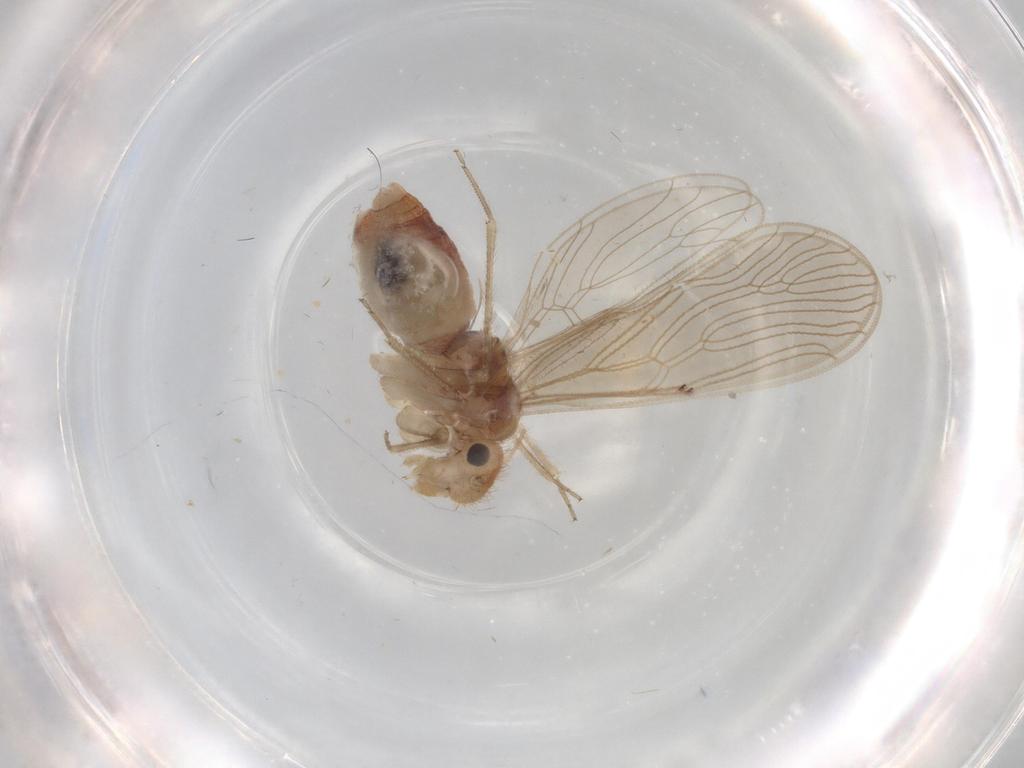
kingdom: Animalia
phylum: Arthropoda
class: Insecta
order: Psocodea
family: Cladiopsocidae
